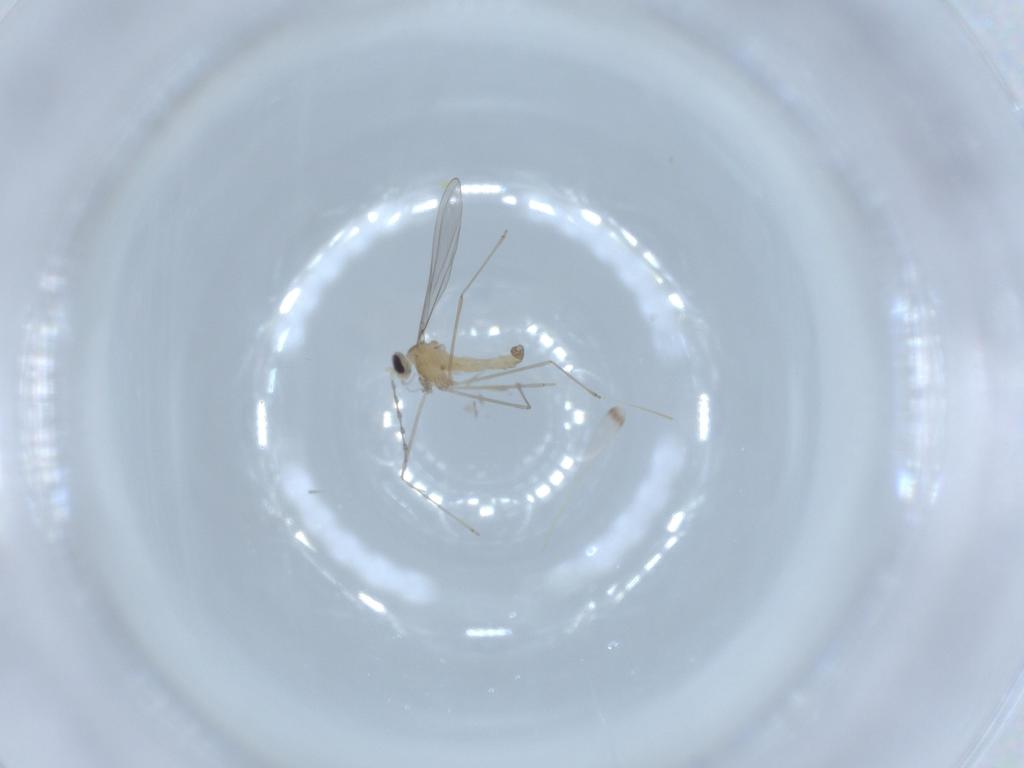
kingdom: Animalia
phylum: Arthropoda
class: Insecta
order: Diptera
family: Cecidomyiidae
